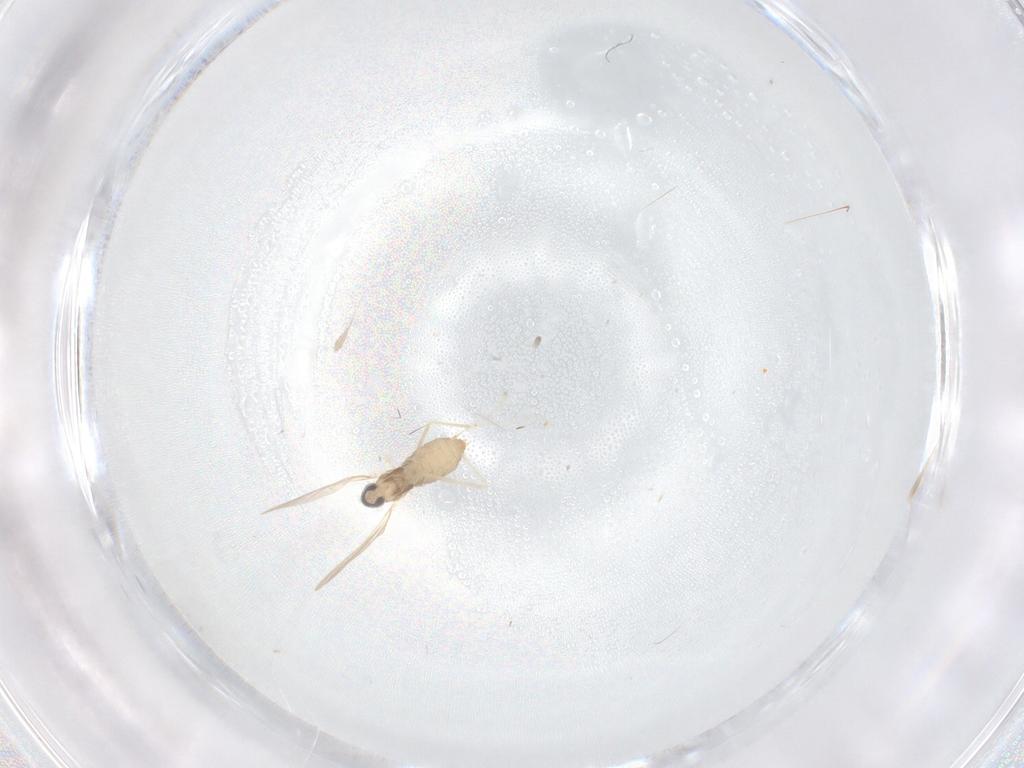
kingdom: Animalia
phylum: Arthropoda
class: Insecta
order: Diptera
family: Cecidomyiidae
